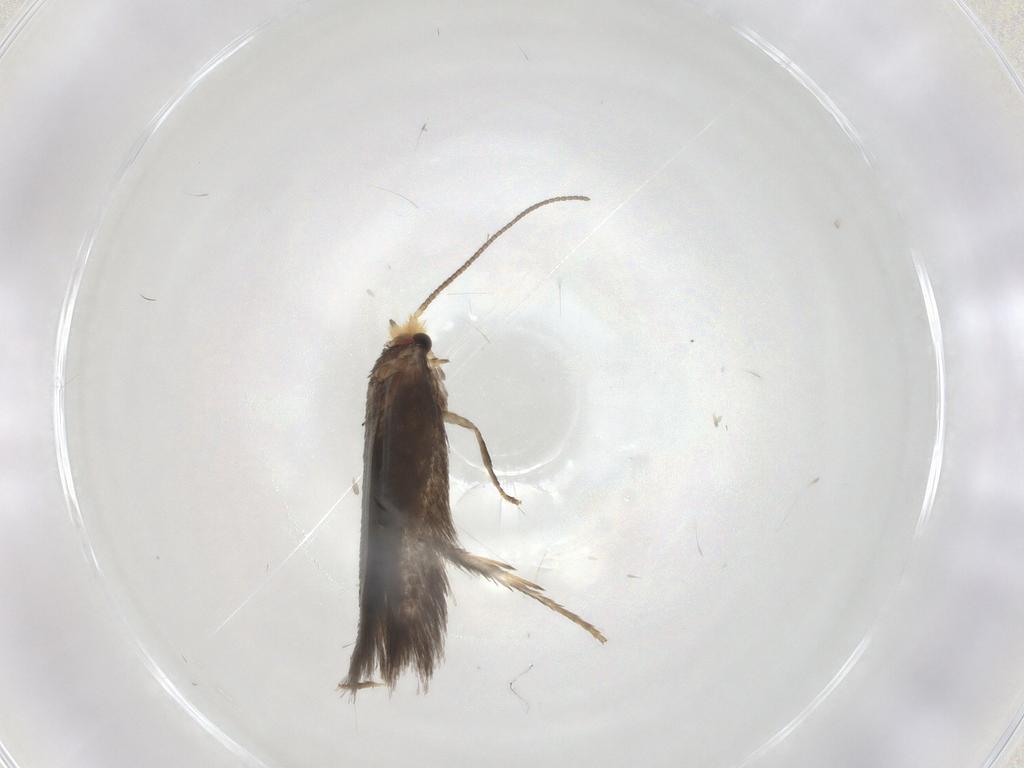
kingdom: Animalia
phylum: Arthropoda
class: Insecta
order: Lepidoptera
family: Nepticulidae
